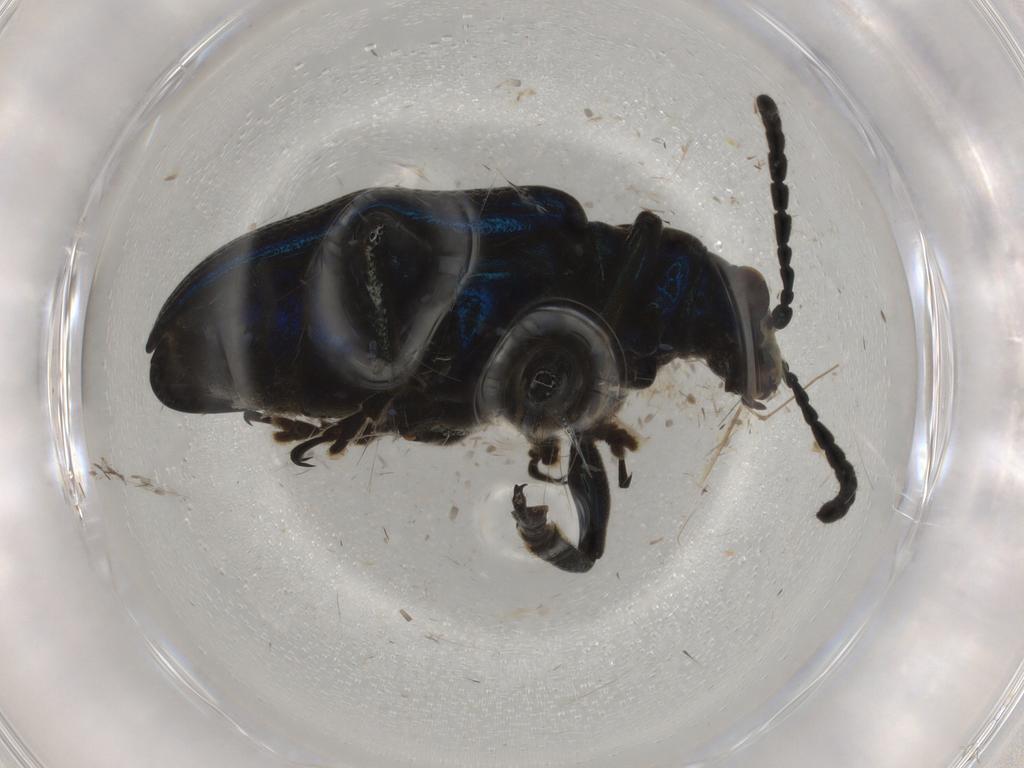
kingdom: Animalia
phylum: Arthropoda
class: Insecta
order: Coleoptera
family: Chrysomelidae
